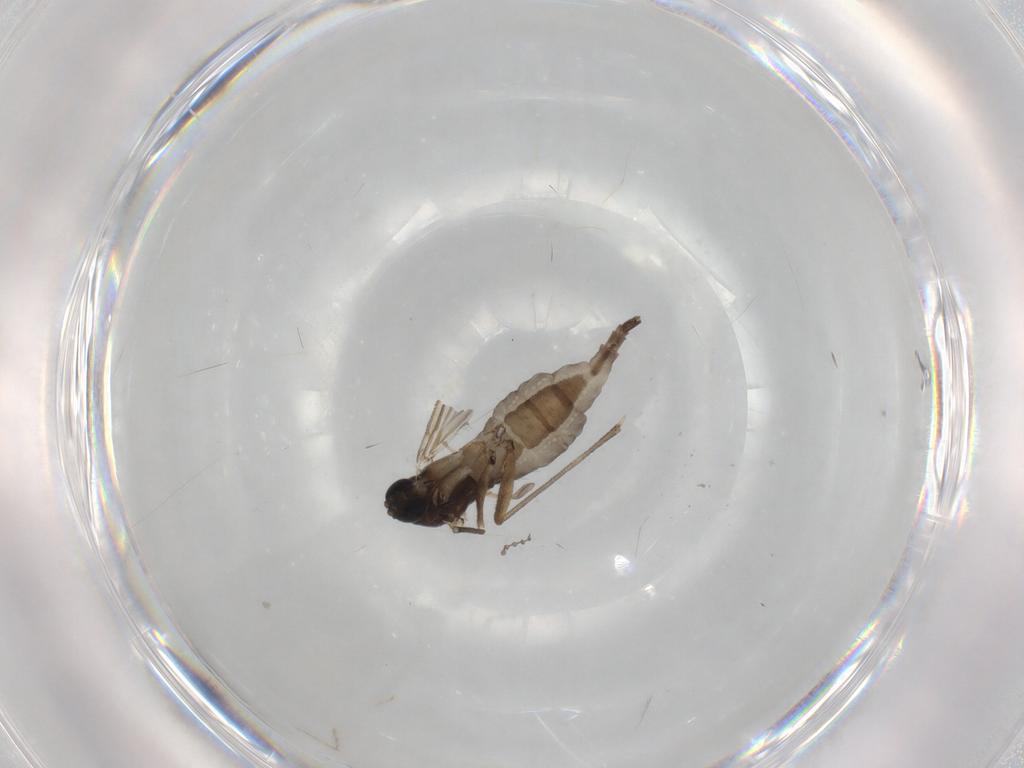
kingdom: Animalia
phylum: Arthropoda
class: Insecta
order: Diptera
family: Sciaridae
